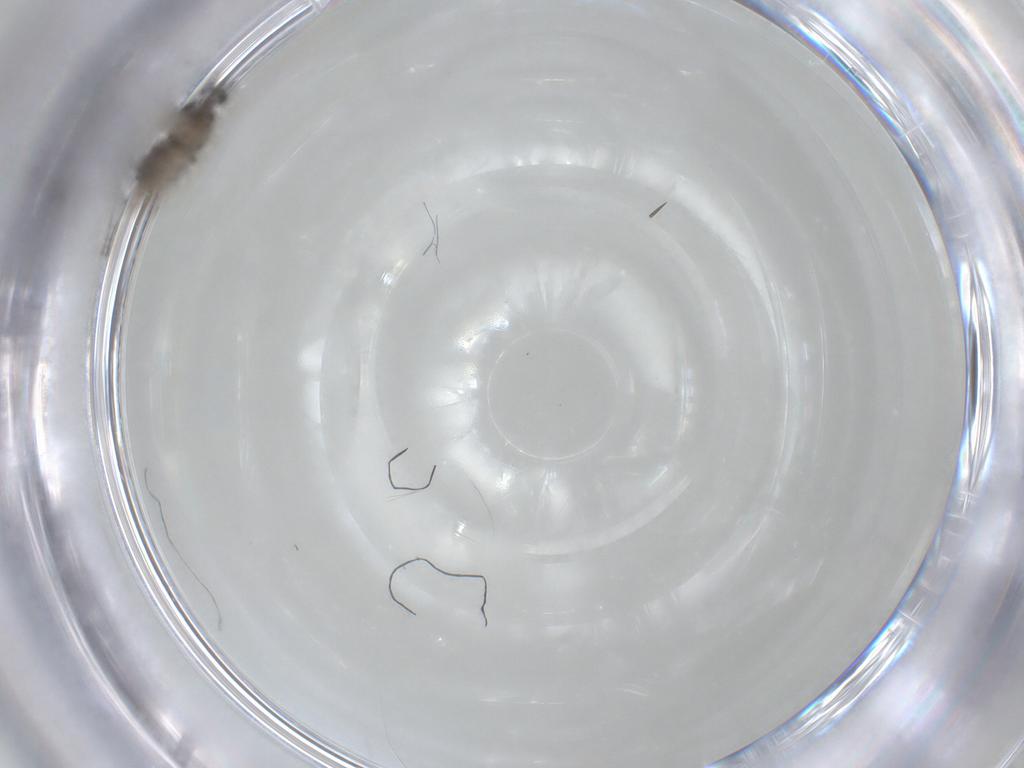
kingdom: Animalia
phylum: Arthropoda
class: Insecta
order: Diptera
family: Cecidomyiidae
